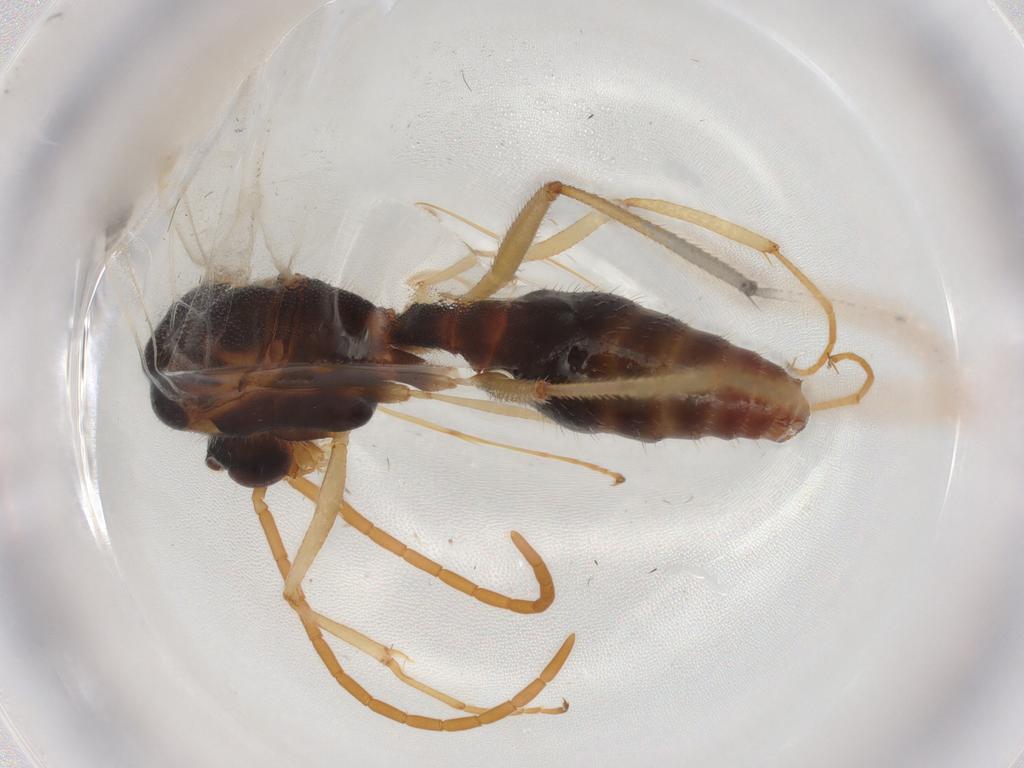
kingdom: Animalia
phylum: Arthropoda
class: Insecta
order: Hymenoptera
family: Formicidae
